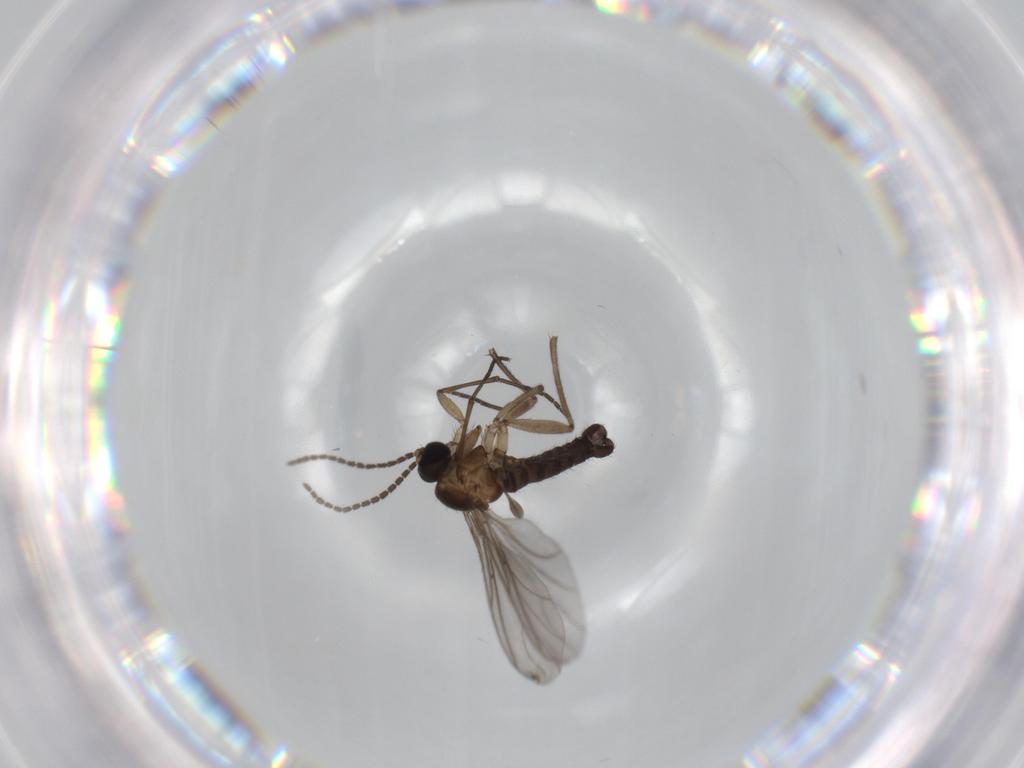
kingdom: Animalia
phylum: Arthropoda
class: Insecta
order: Diptera
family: Sciaridae
